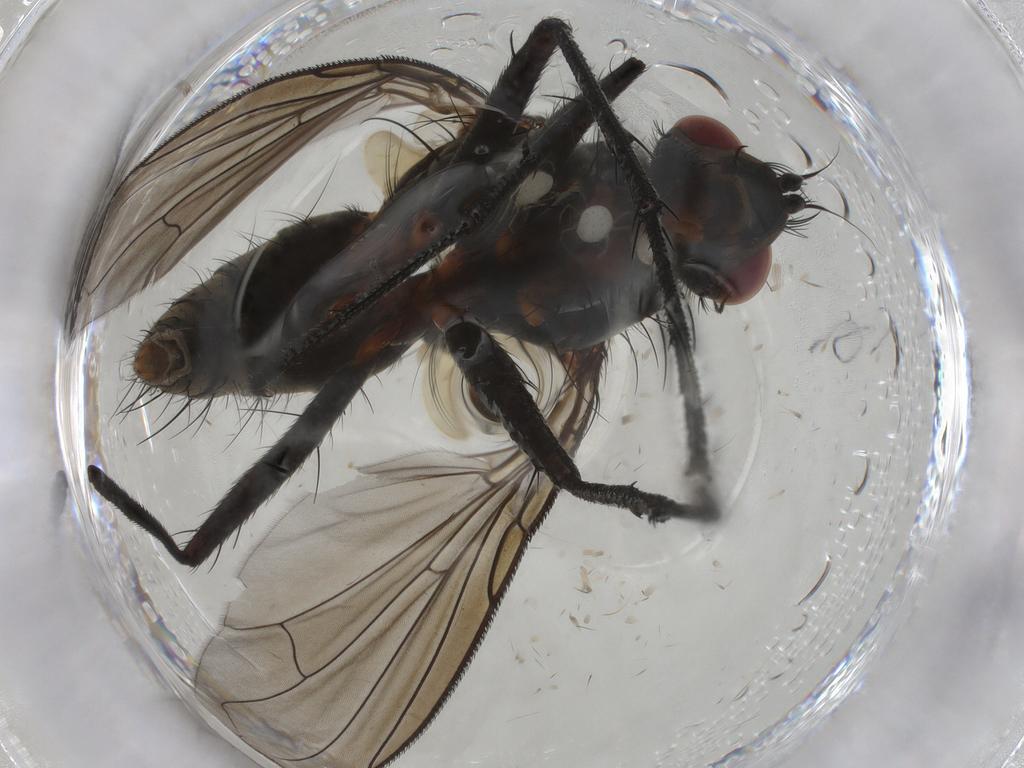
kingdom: Animalia
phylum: Arthropoda
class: Insecta
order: Diptera
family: Tachinidae
